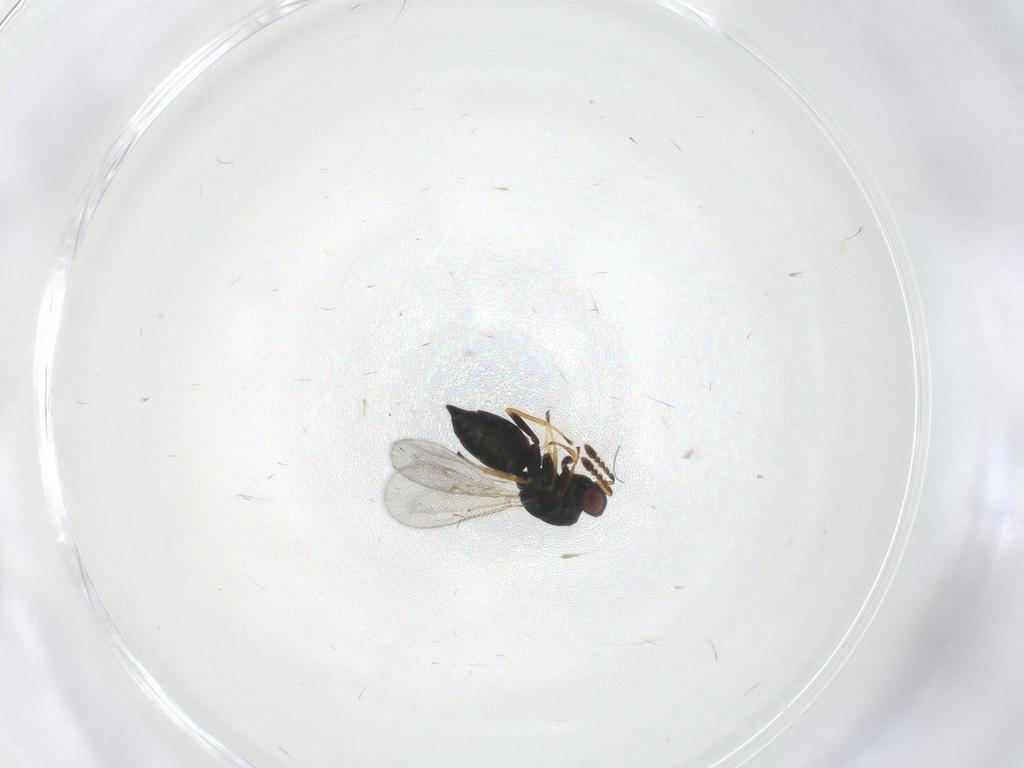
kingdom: Animalia
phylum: Arthropoda
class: Insecta
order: Hymenoptera
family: Eulophidae
